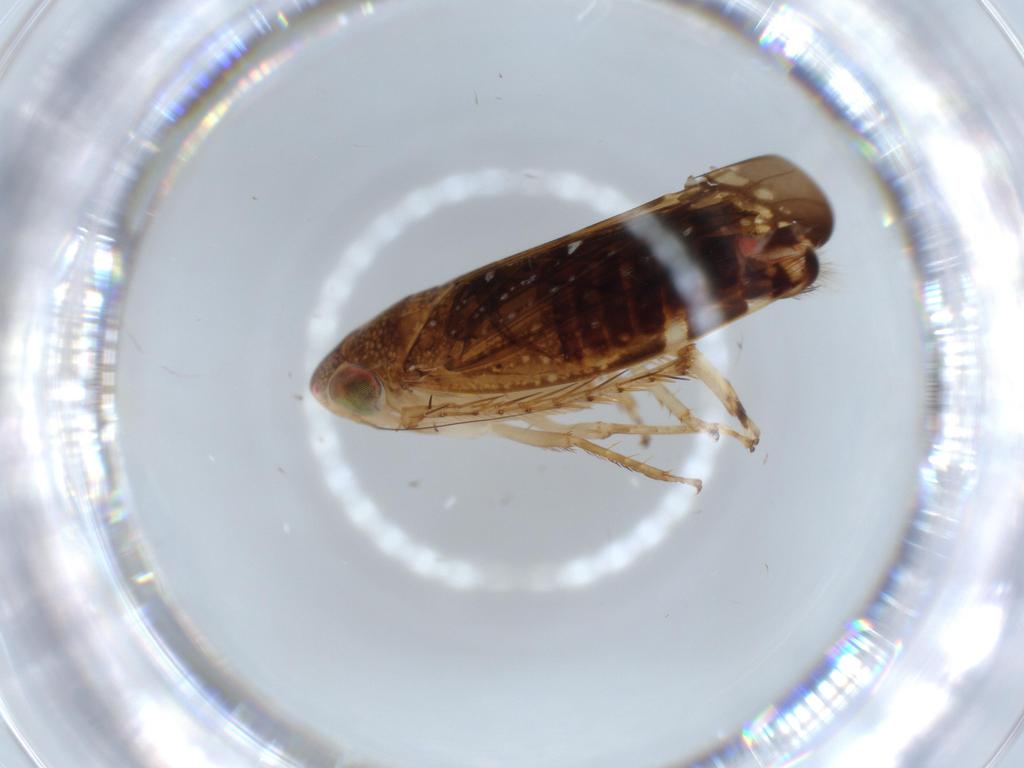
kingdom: Animalia
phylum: Arthropoda
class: Insecta
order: Hemiptera
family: Cicadellidae
